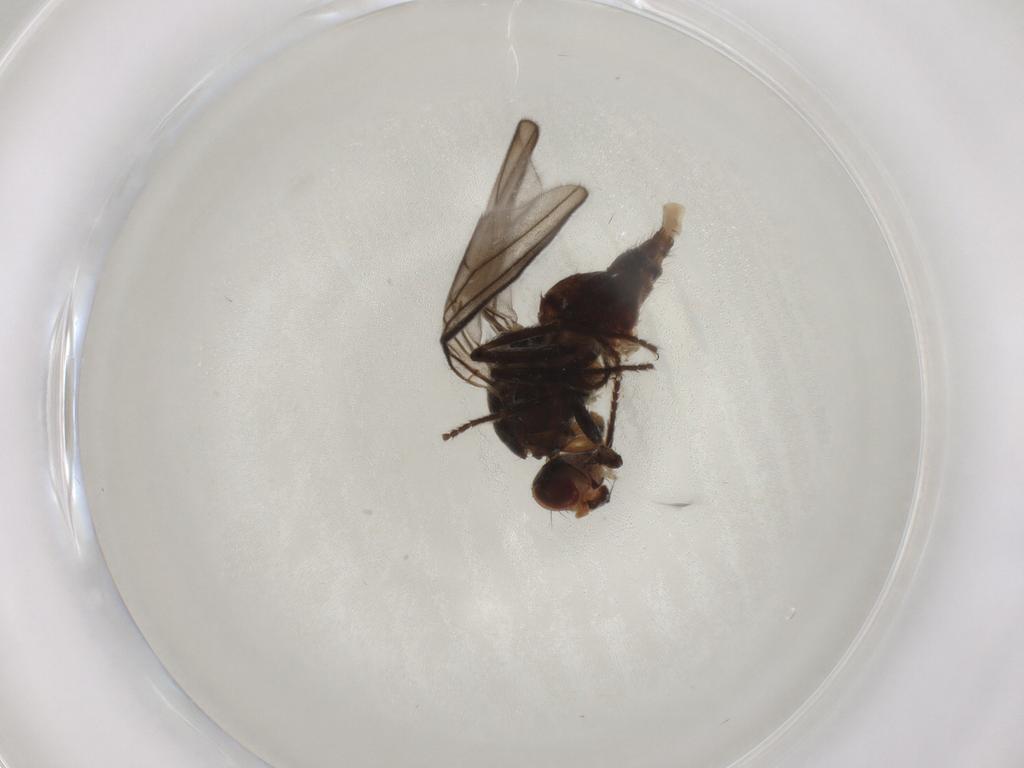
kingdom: Animalia
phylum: Arthropoda
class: Insecta
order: Diptera
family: Chloropidae
